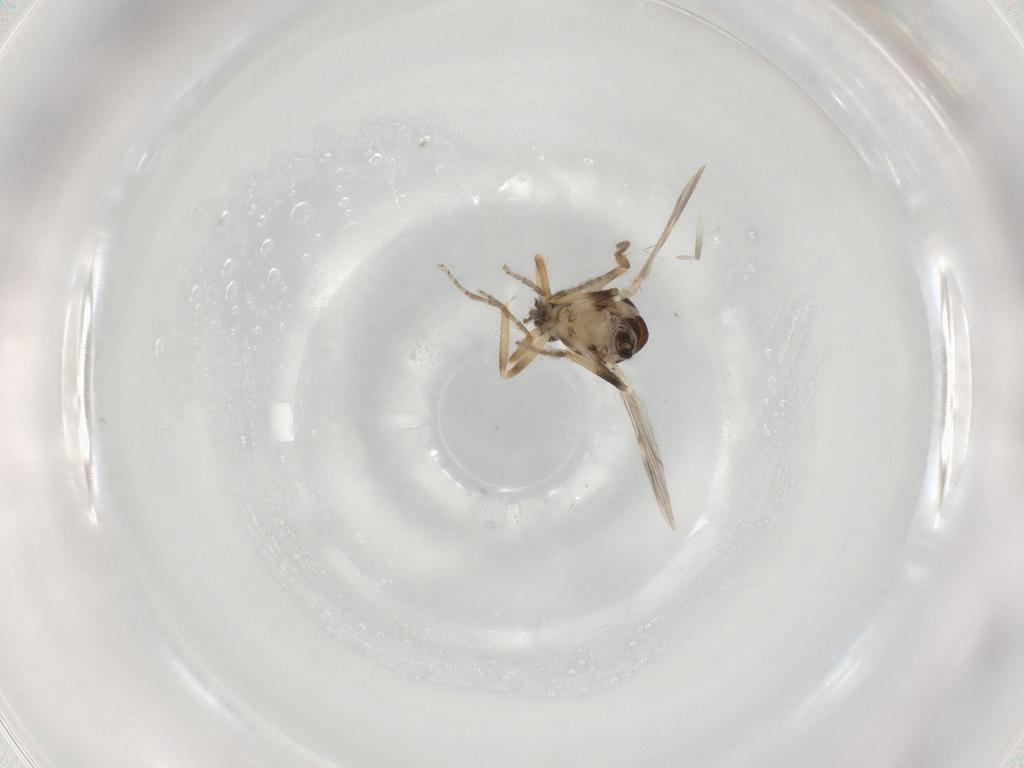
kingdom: Animalia
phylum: Arthropoda
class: Insecta
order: Diptera
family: Ceratopogonidae
